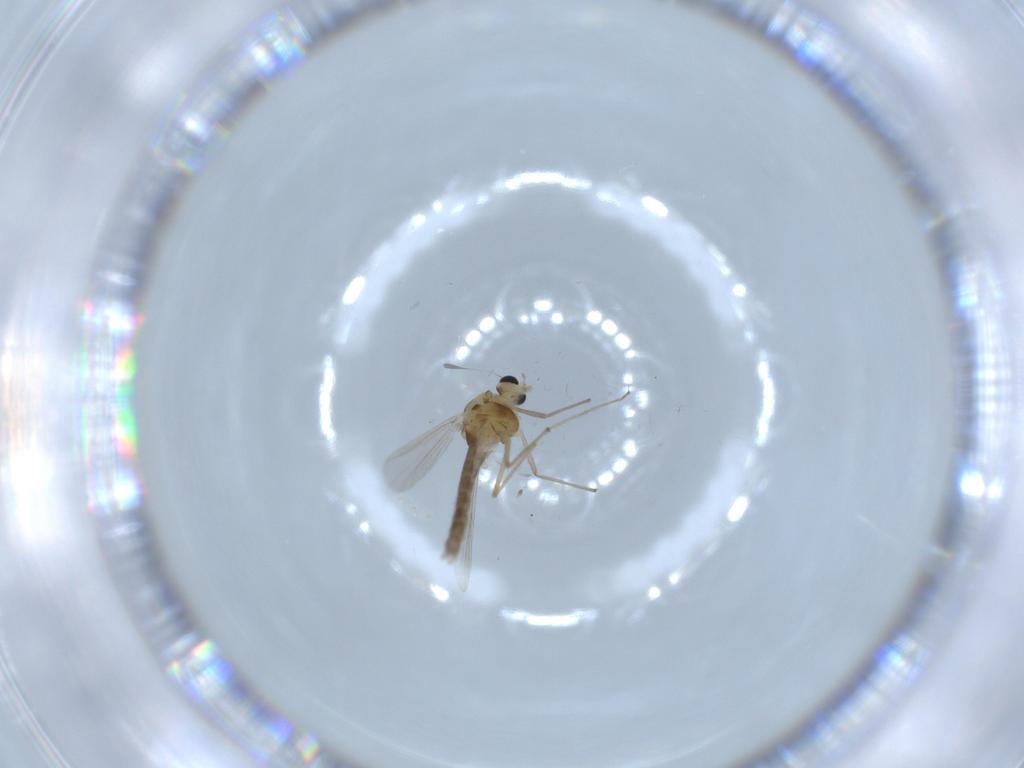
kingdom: Animalia
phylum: Arthropoda
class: Insecta
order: Diptera
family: Chironomidae
